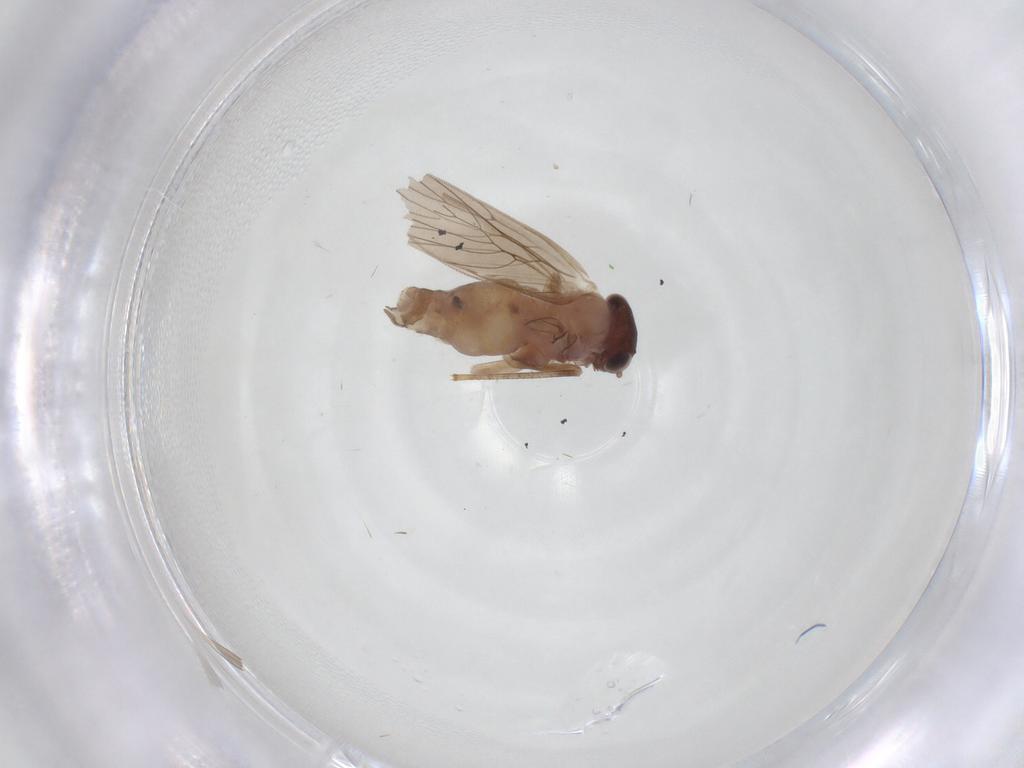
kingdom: Animalia
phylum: Arthropoda
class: Insecta
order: Psocodea
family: Lepidopsocidae
